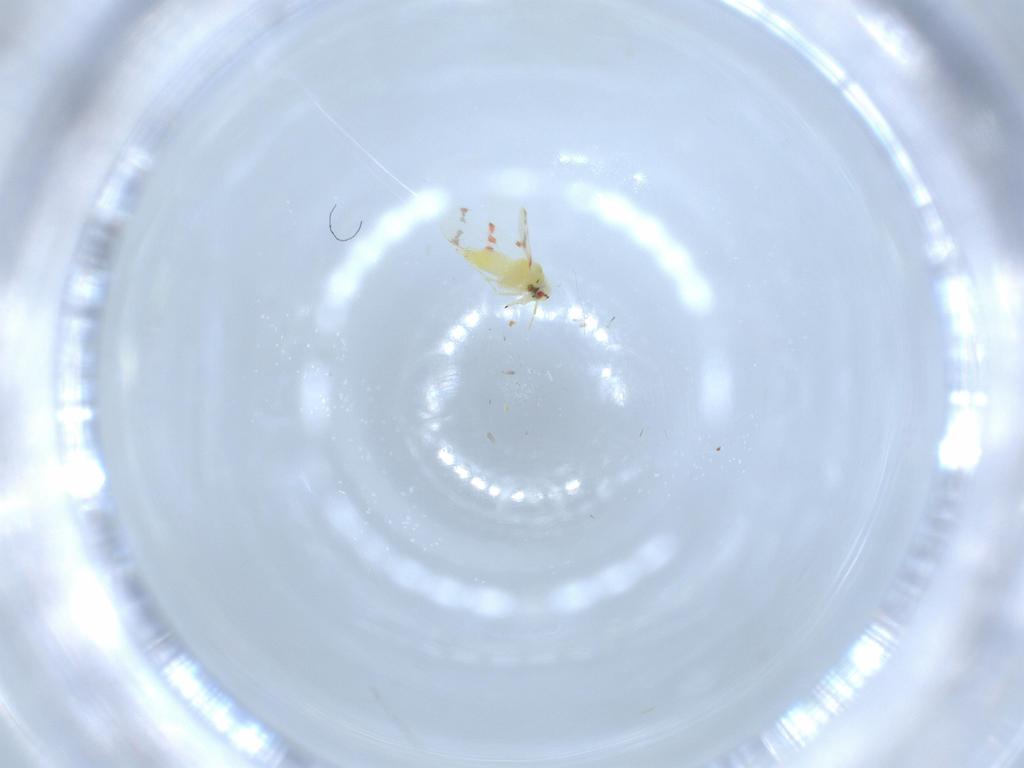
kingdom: Animalia
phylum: Arthropoda
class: Insecta
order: Hemiptera
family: Aleyrodidae
